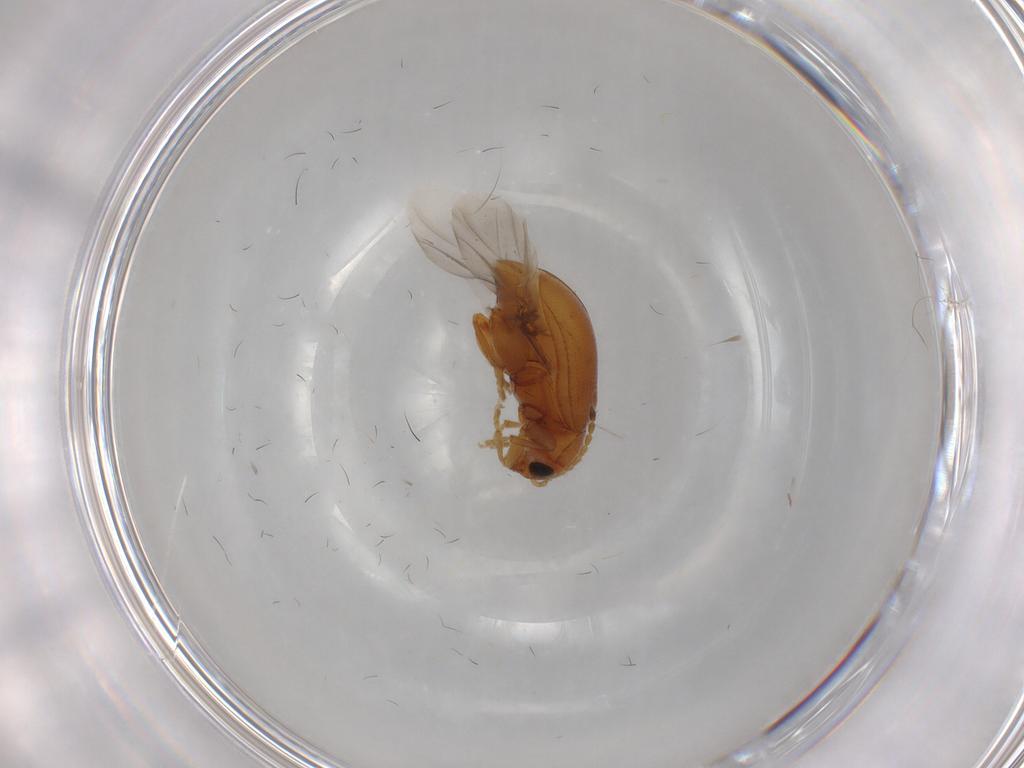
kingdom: Animalia
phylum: Arthropoda
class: Insecta
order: Coleoptera
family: Chrysomelidae
